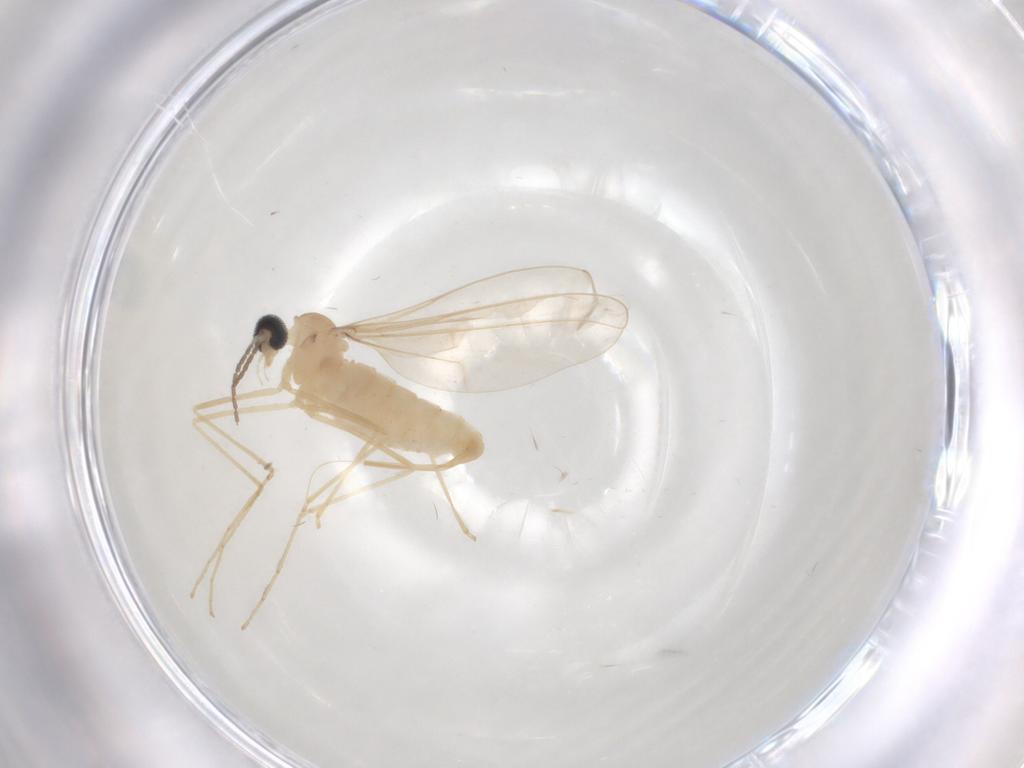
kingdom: Animalia
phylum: Arthropoda
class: Insecta
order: Diptera
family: Cecidomyiidae
